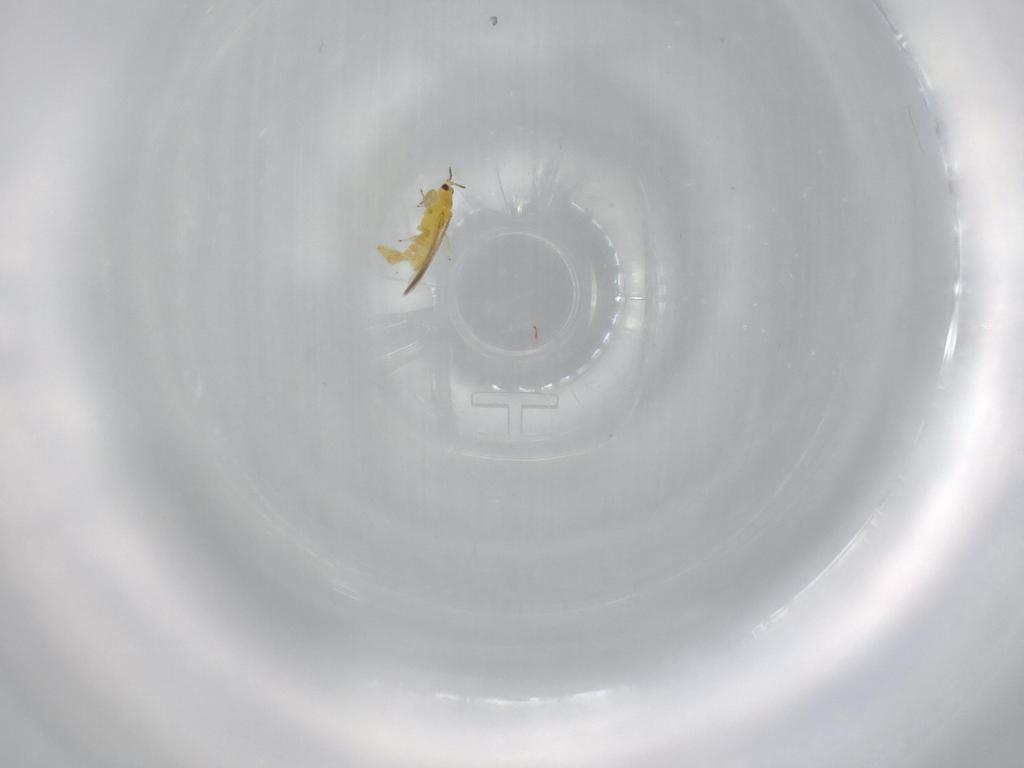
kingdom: Animalia
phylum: Arthropoda
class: Insecta
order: Thysanoptera
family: Thripidae
